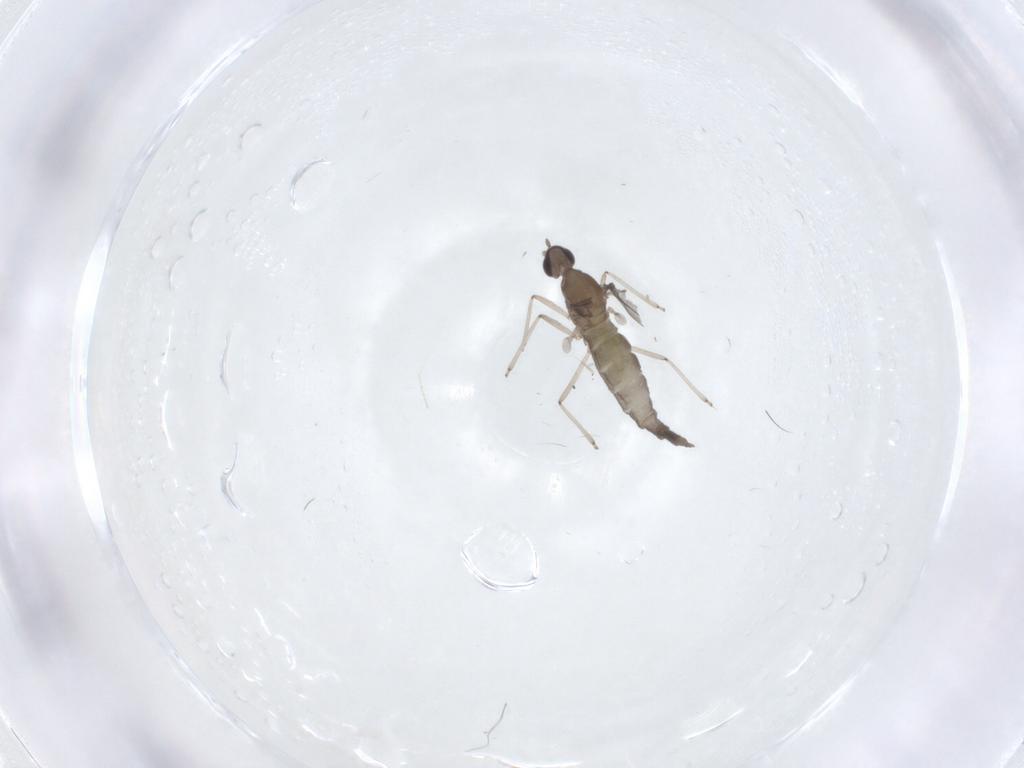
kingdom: Animalia
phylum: Arthropoda
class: Insecta
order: Diptera
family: Cecidomyiidae
